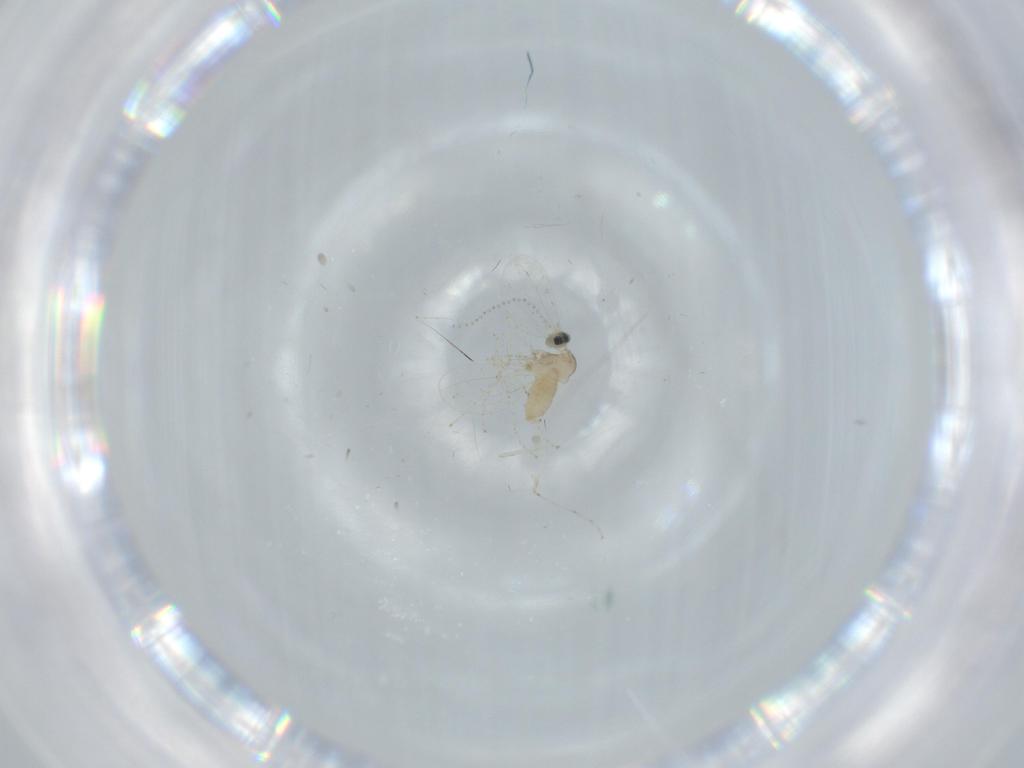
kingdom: Animalia
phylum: Arthropoda
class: Insecta
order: Diptera
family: Cecidomyiidae
